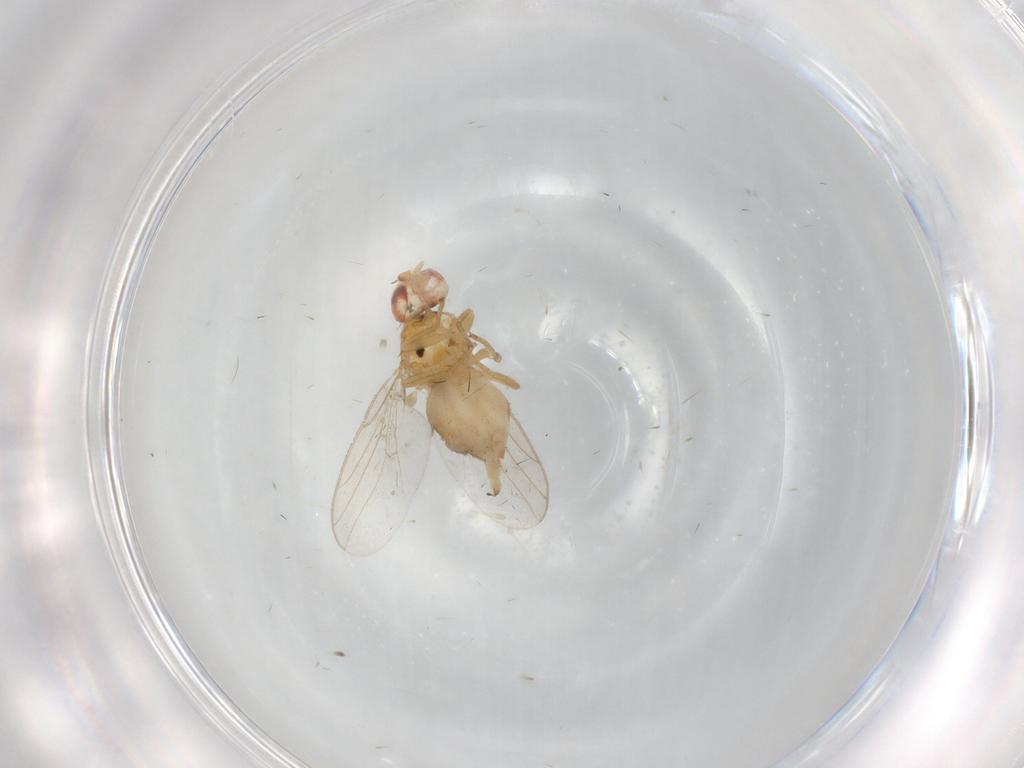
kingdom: Animalia
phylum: Arthropoda
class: Insecta
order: Diptera
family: Chloropidae
